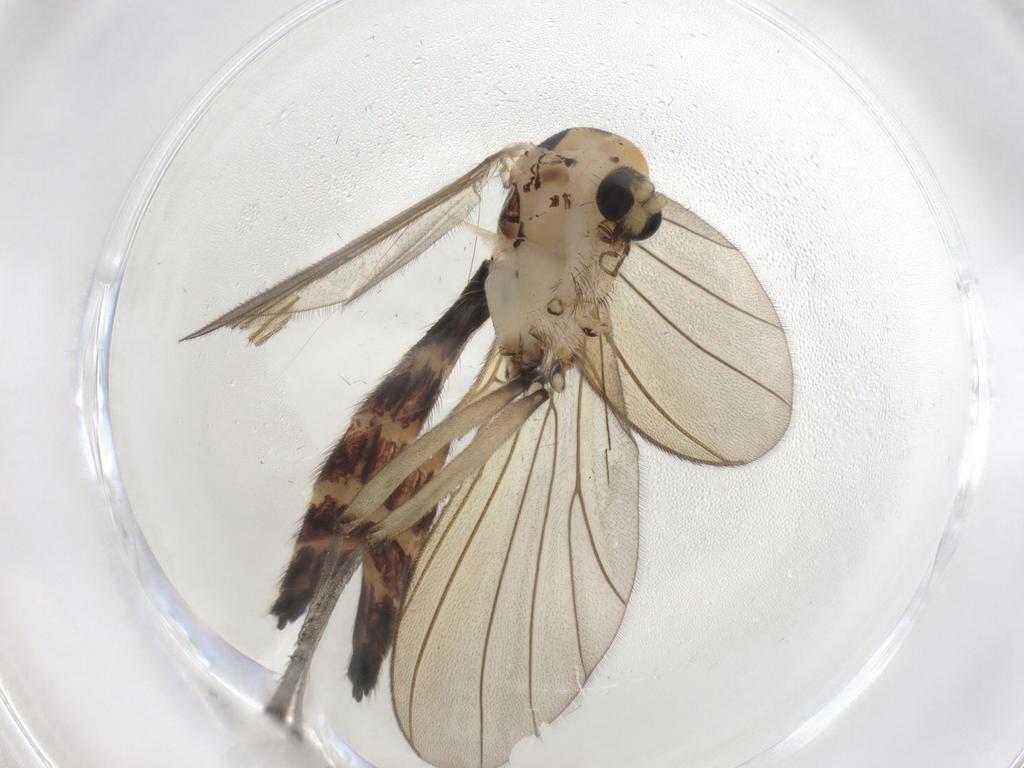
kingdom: Animalia
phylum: Arthropoda
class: Insecta
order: Diptera
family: Mycetophilidae
